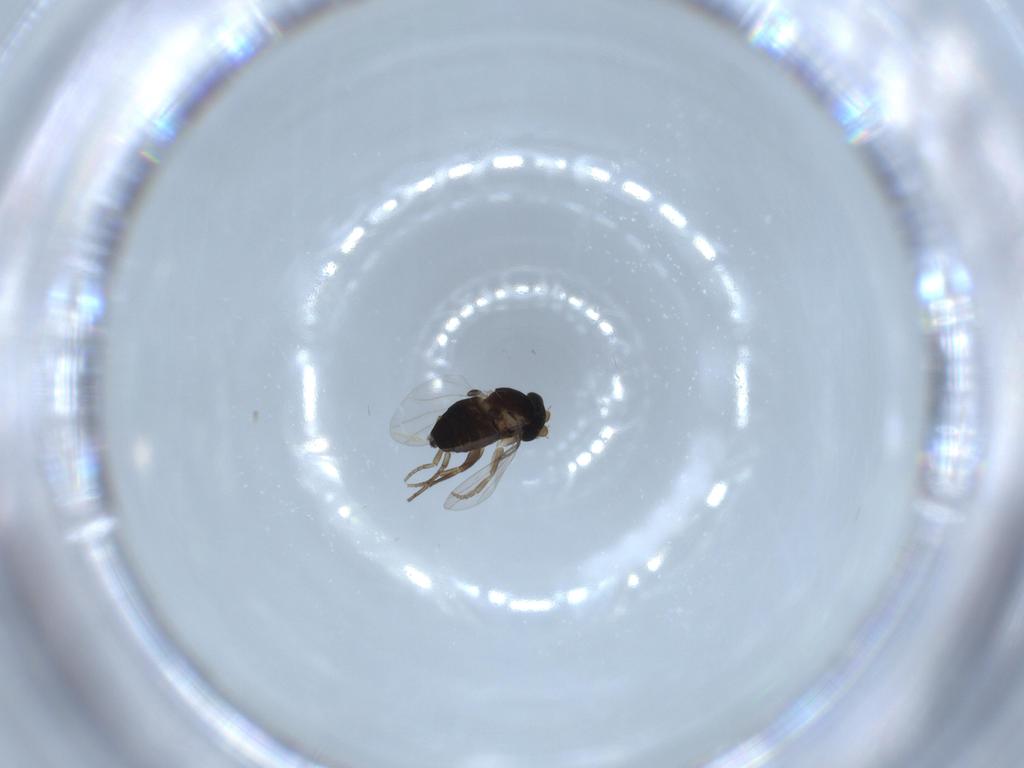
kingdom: Animalia
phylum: Arthropoda
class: Insecta
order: Diptera
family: Phoridae
